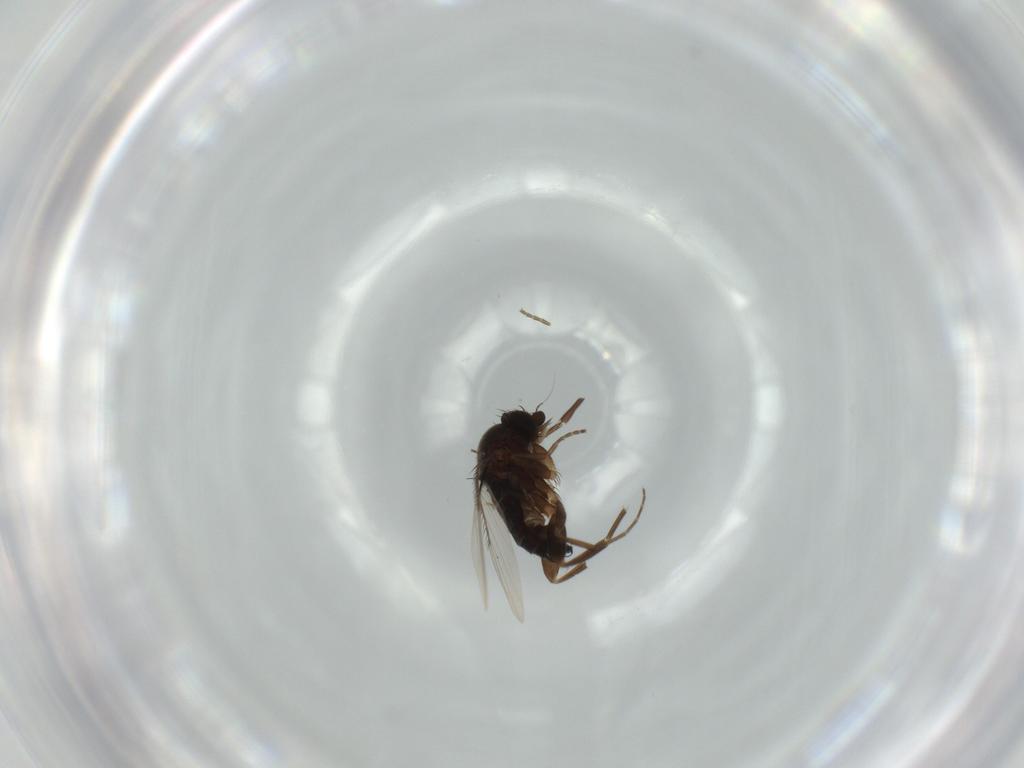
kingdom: Animalia
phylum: Arthropoda
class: Insecta
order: Diptera
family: Phoridae
